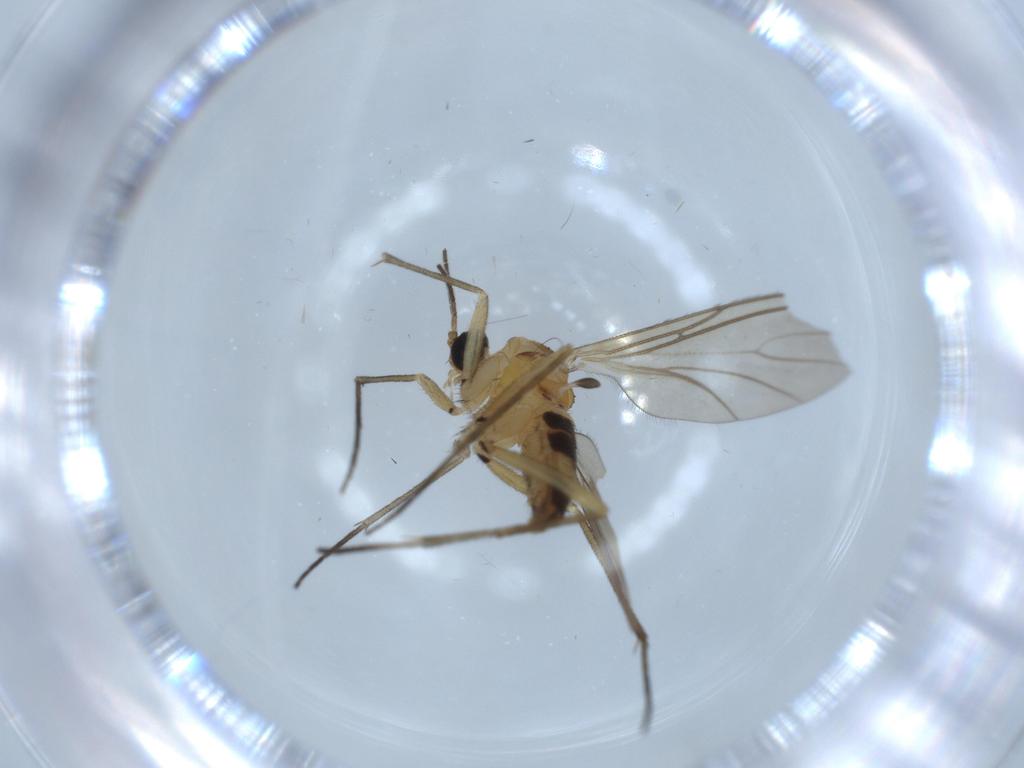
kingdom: Animalia
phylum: Arthropoda
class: Insecta
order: Diptera
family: Sciaridae
